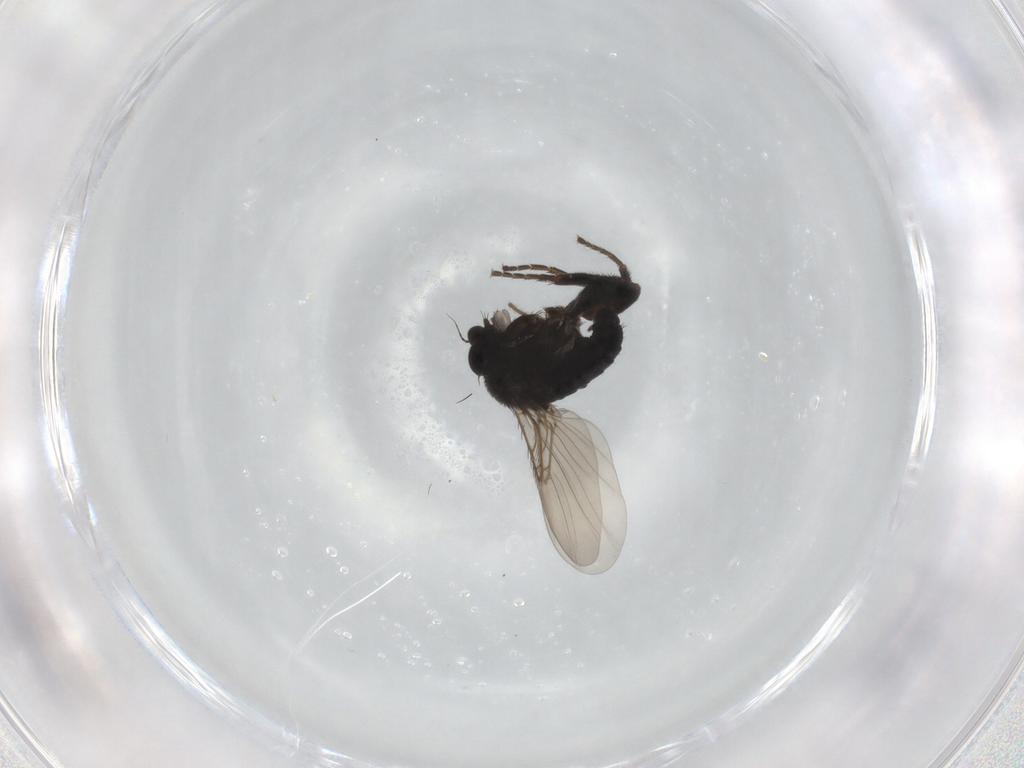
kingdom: Animalia
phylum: Arthropoda
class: Insecta
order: Diptera
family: Phoridae
